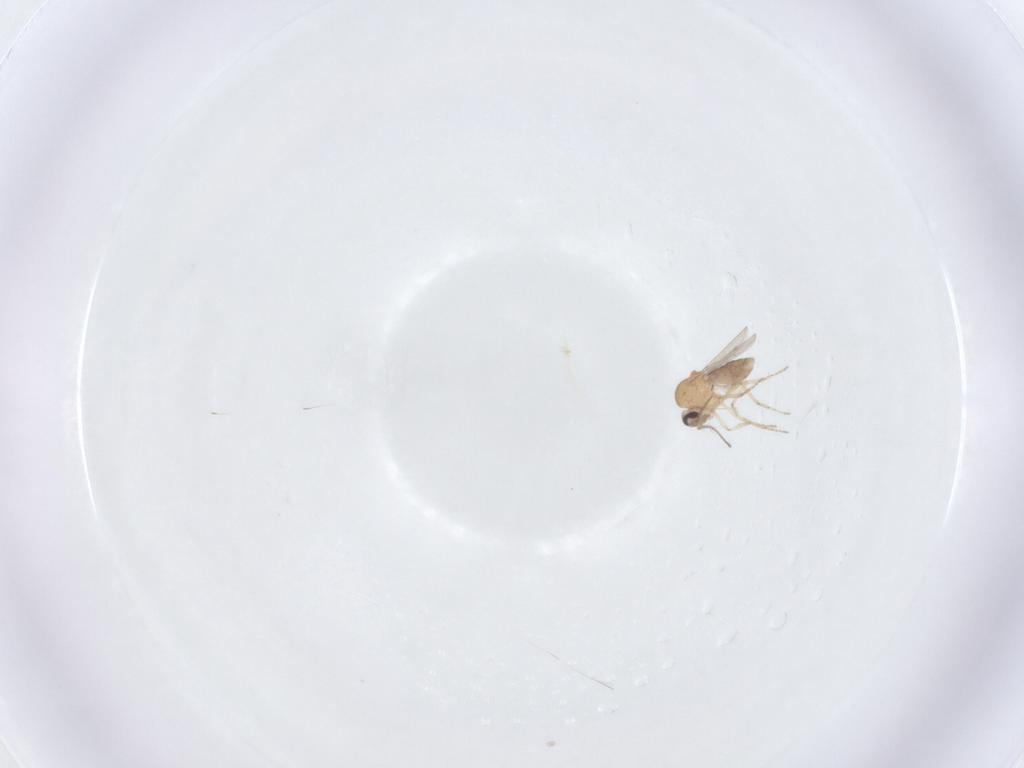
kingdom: Animalia
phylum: Arthropoda
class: Insecta
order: Diptera
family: Ceratopogonidae
